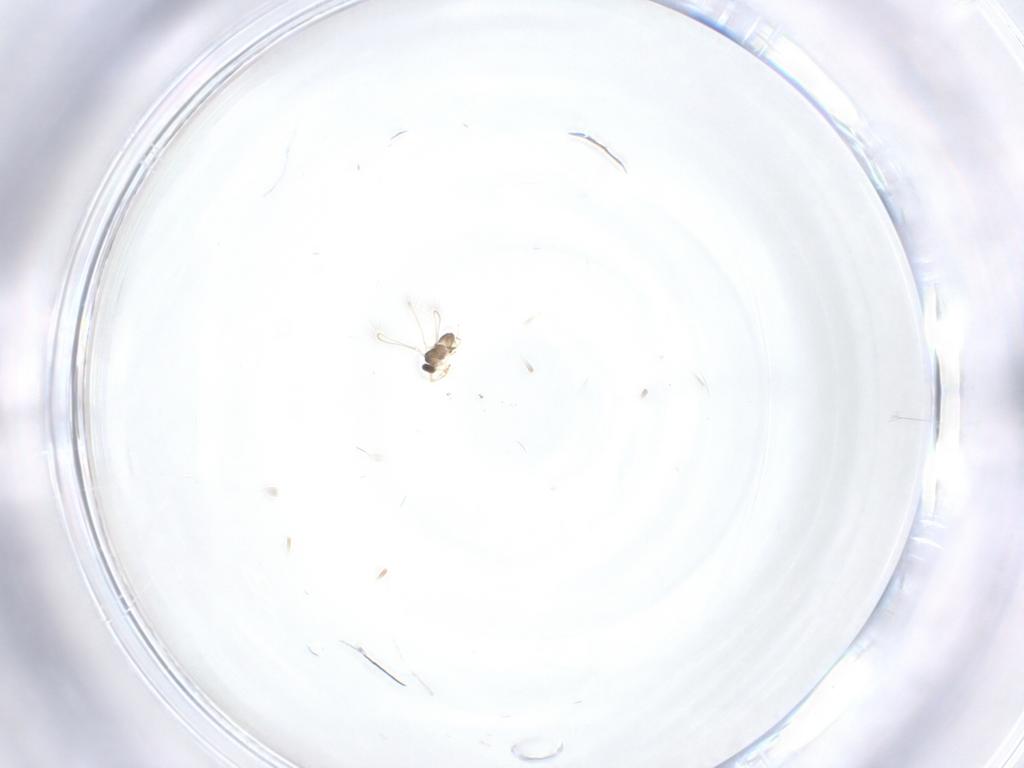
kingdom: Animalia
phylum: Arthropoda
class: Insecta
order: Hymenoptera
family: Mymaridae
